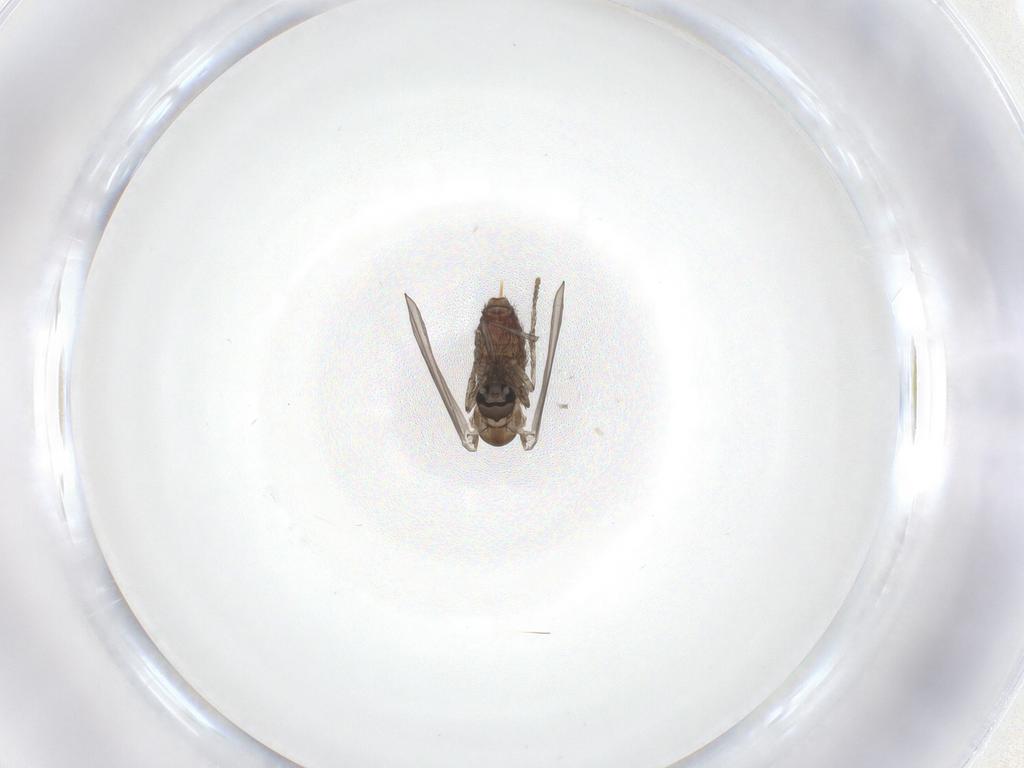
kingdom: Animalia
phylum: Arthropoda
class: Insecta
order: Diptera
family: Psychodidae
